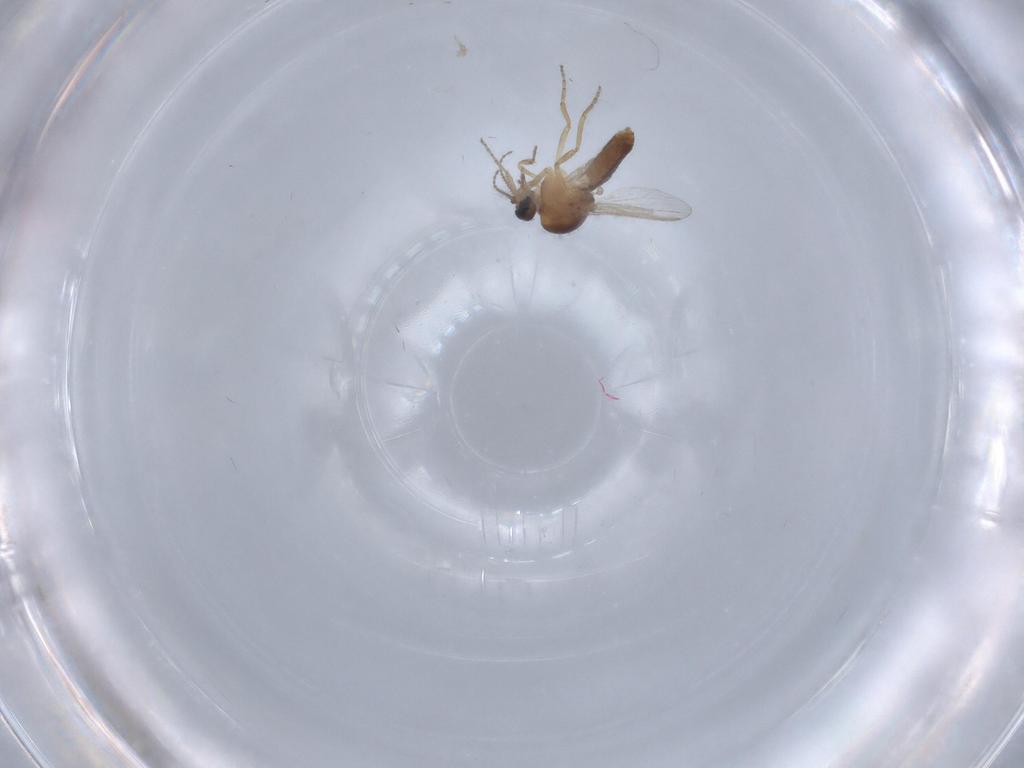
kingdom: Animalia
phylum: Arthropoda
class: Insecta
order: Diptera
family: Ceratopogonidae
